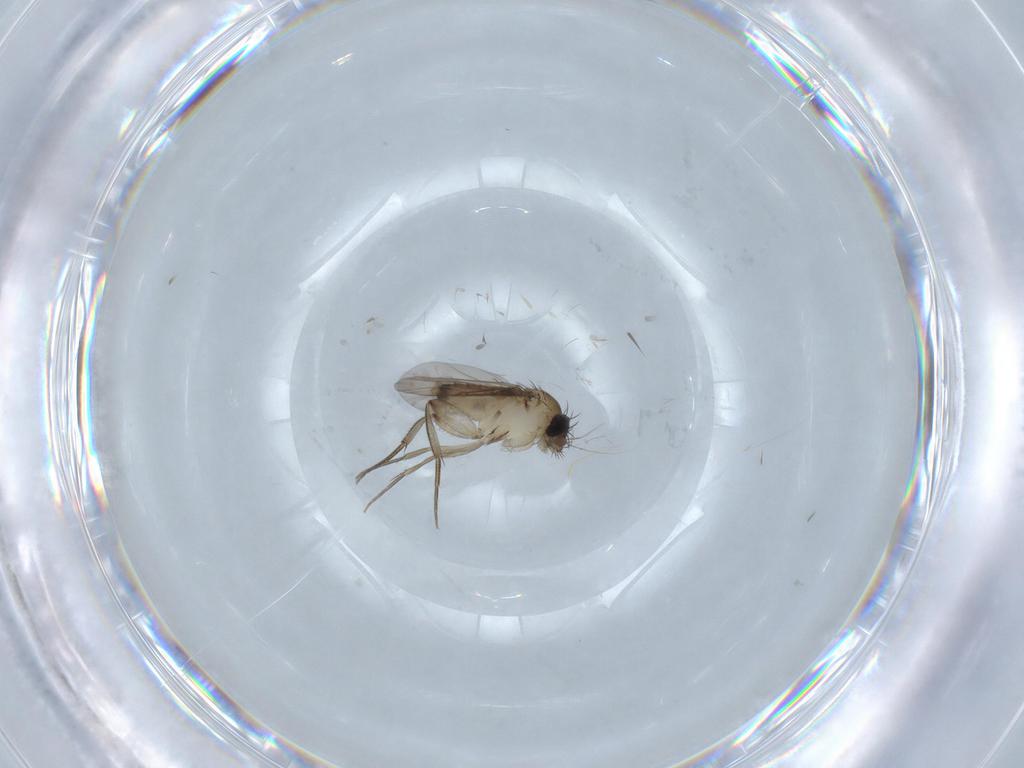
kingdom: Animalia
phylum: Arthropoda
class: Insecta
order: Diptera
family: Phoridae
